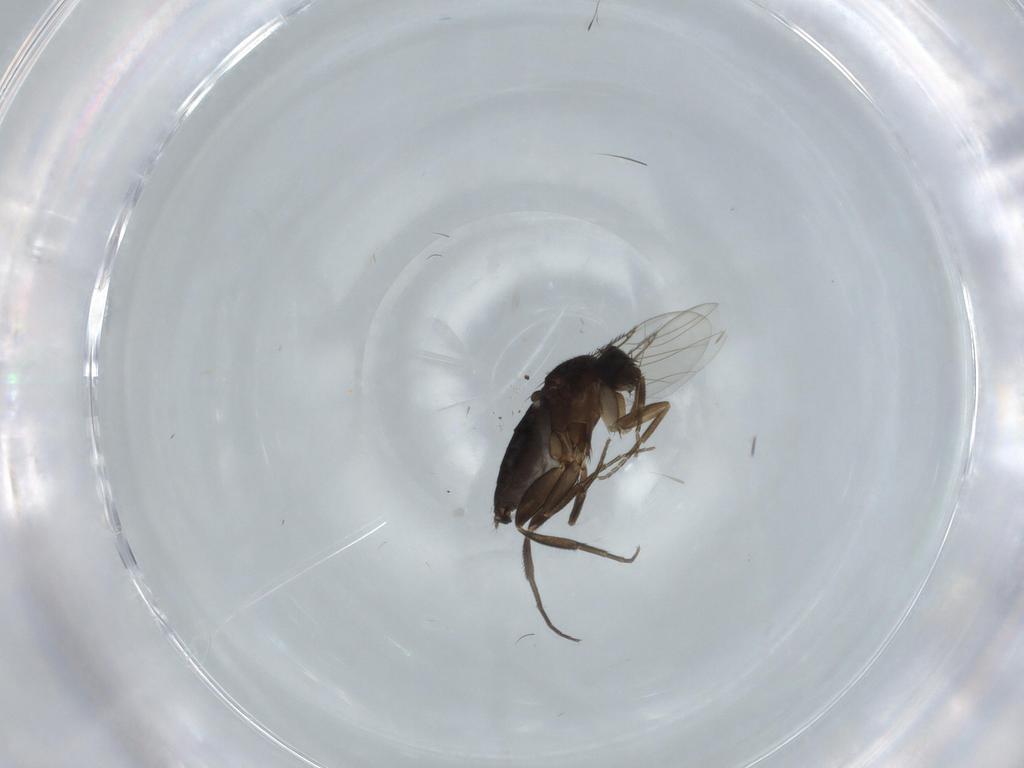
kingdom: Animalia
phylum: Arthropoda
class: Insecta
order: Diptera
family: Phoridae
